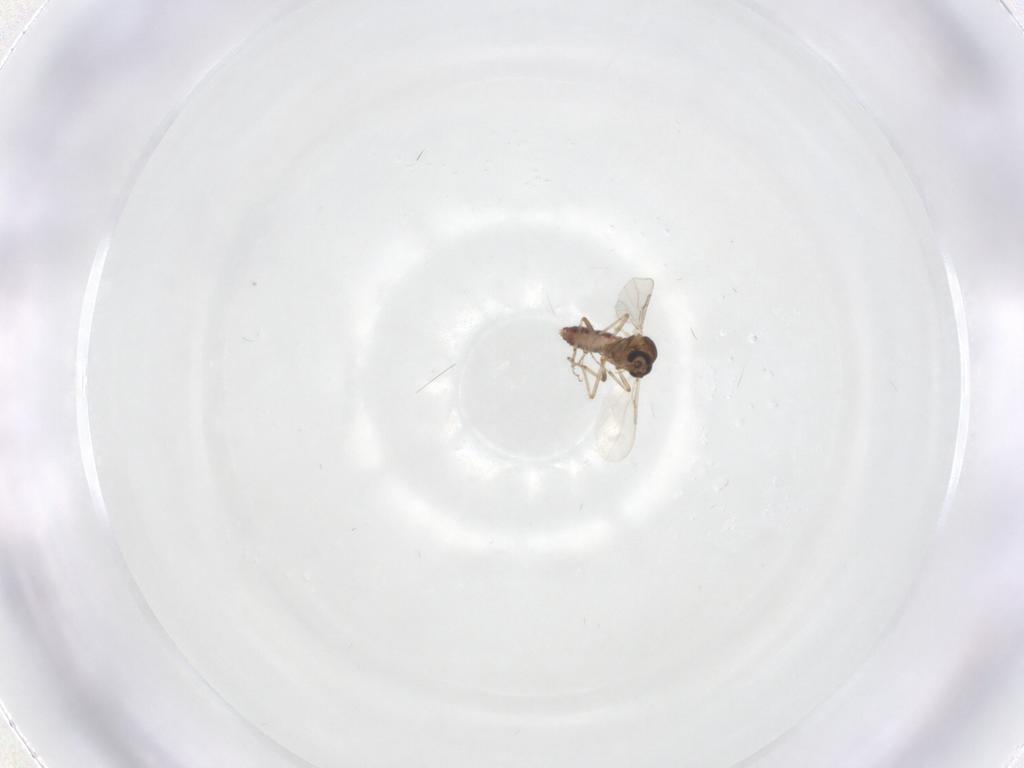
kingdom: Animalia
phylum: Arthropoda
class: Insecta
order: Diptera
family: Ceratopogonidae
